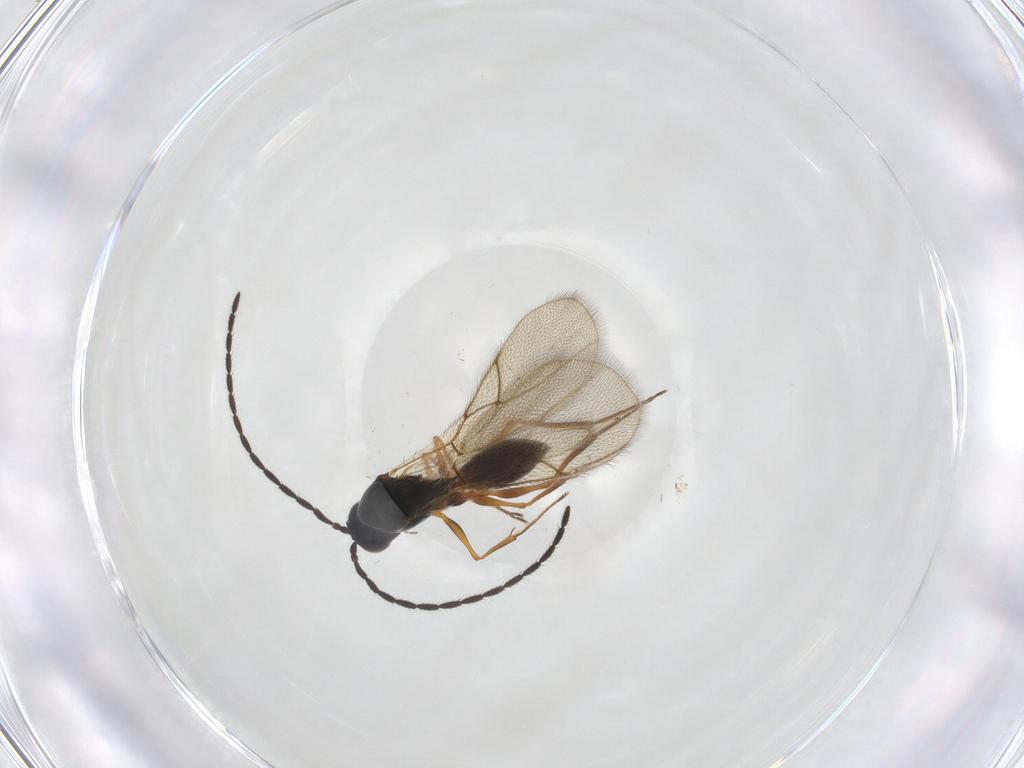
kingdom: Animalia
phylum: Arthropoda
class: Insecta
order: Hymenoptera
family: Figitidae
